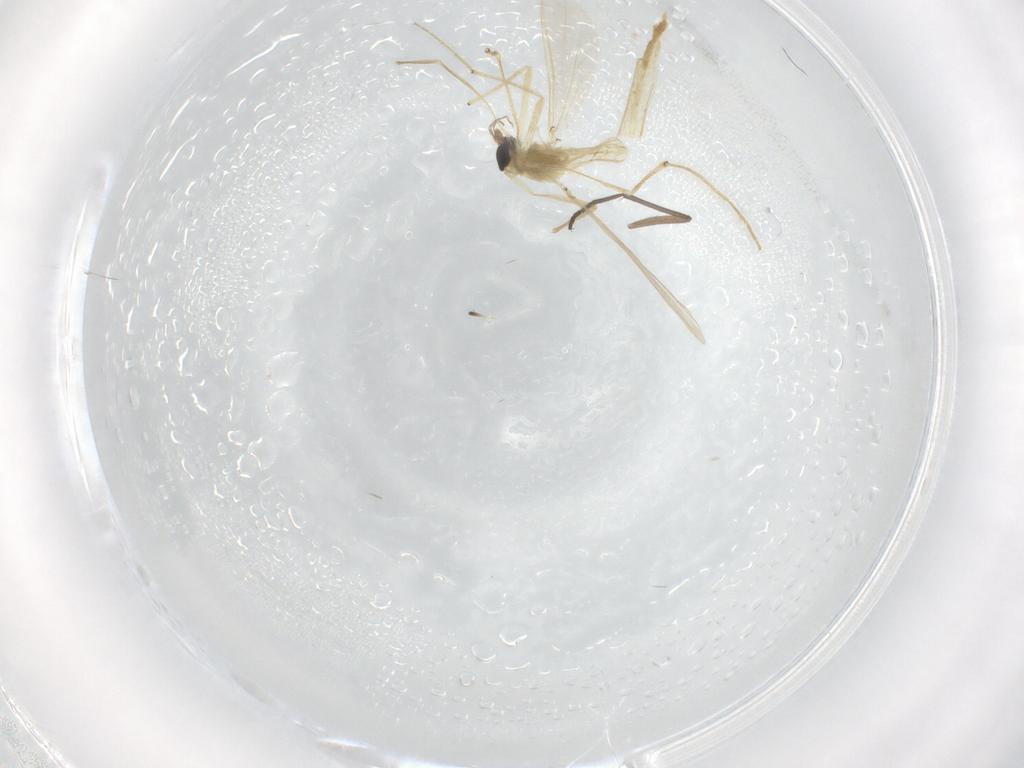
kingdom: Animalia
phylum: Arthropoda
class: Insecta
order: Diptera
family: Chironomidae
